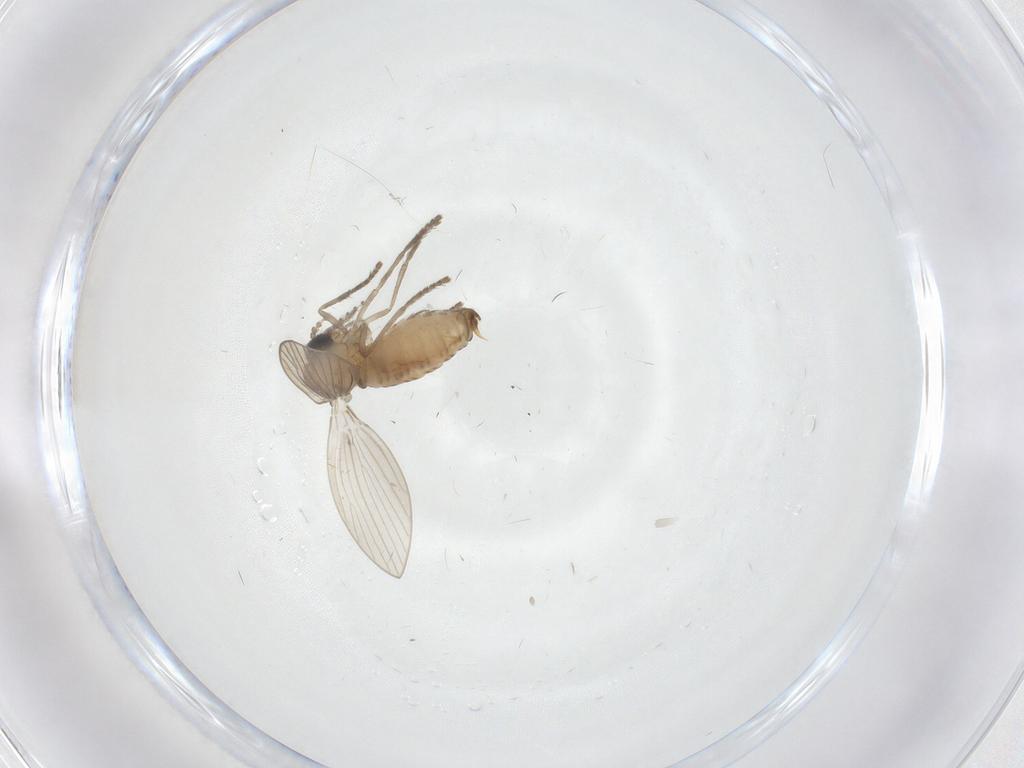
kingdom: Animalia
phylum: Arthropoda
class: Insecta
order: Diptera
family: Psychodidae
